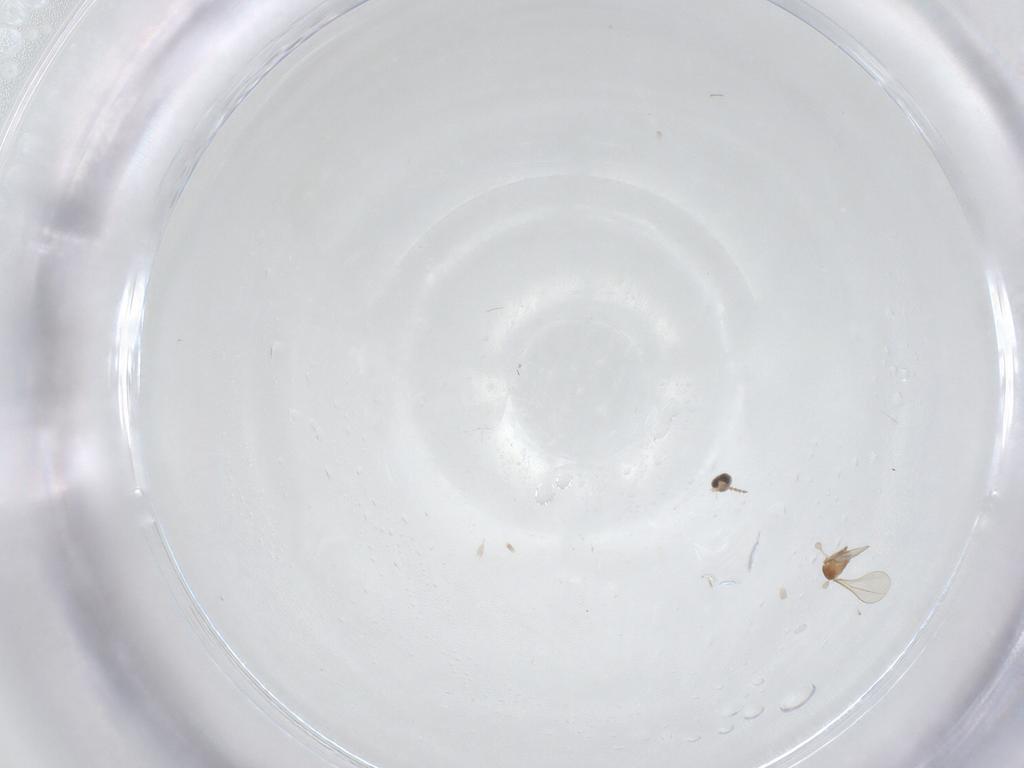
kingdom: Animalia
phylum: Arthropoda
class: Insecta
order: Diptera
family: Cecidomyiidae
